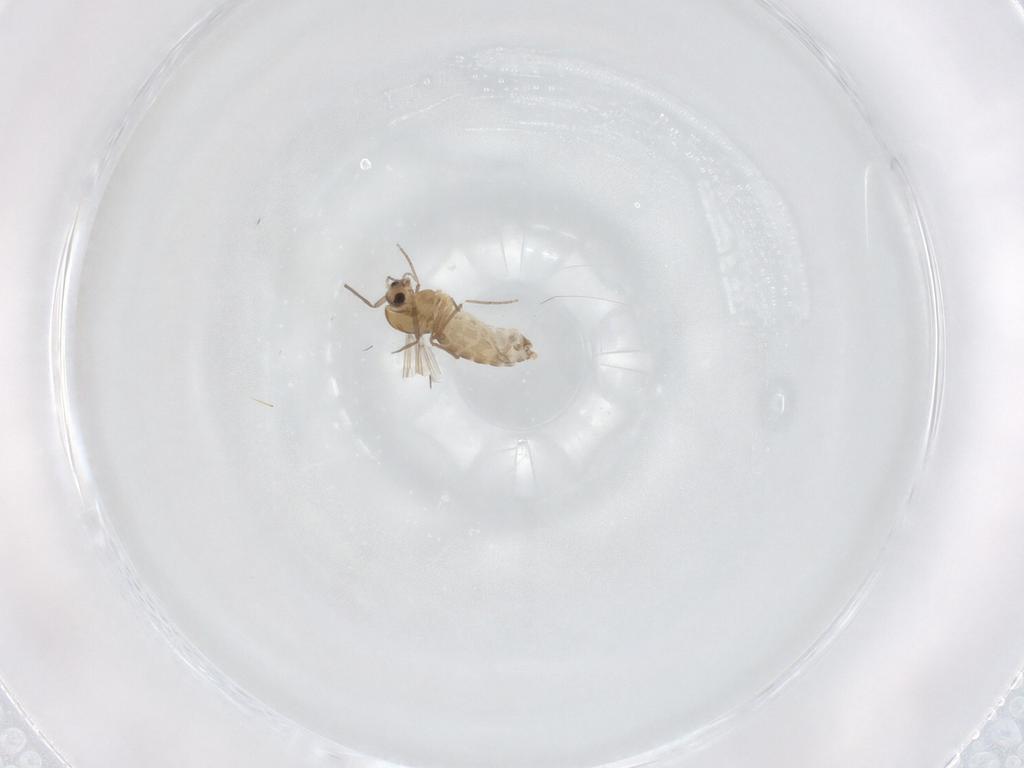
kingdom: Animalia
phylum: Arthropoda
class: Insecta
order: Diptera
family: Chironomidae
